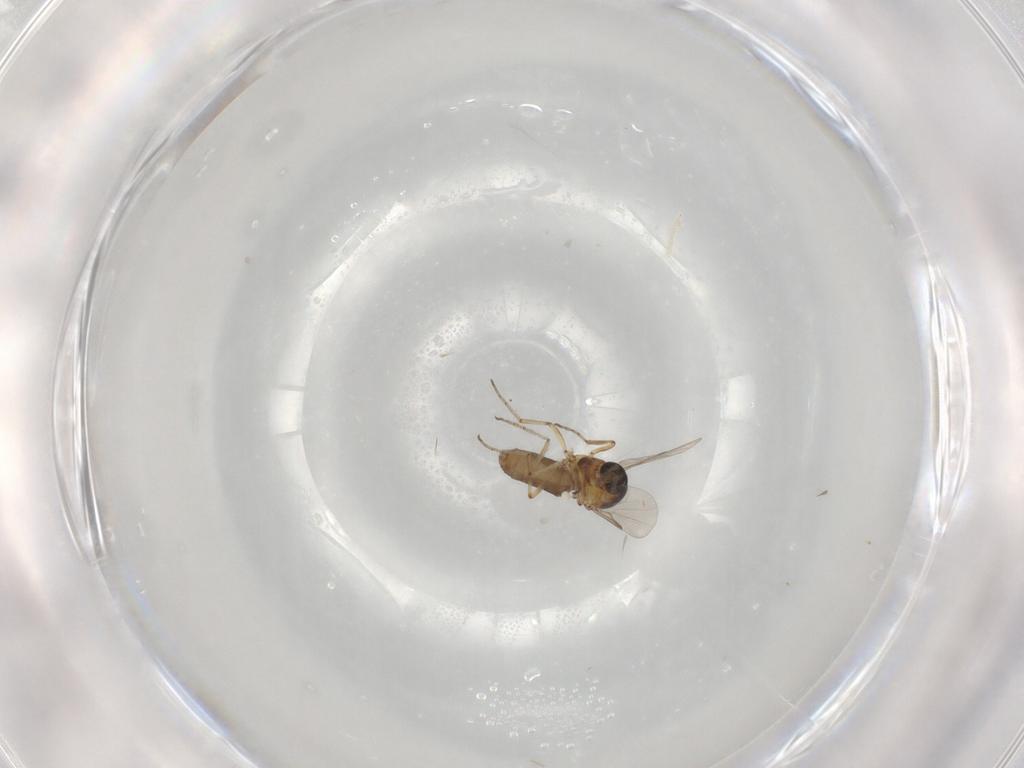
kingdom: Animalia
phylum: Arthropoda
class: Insecta
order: Diptera
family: Ceratopogonidae
